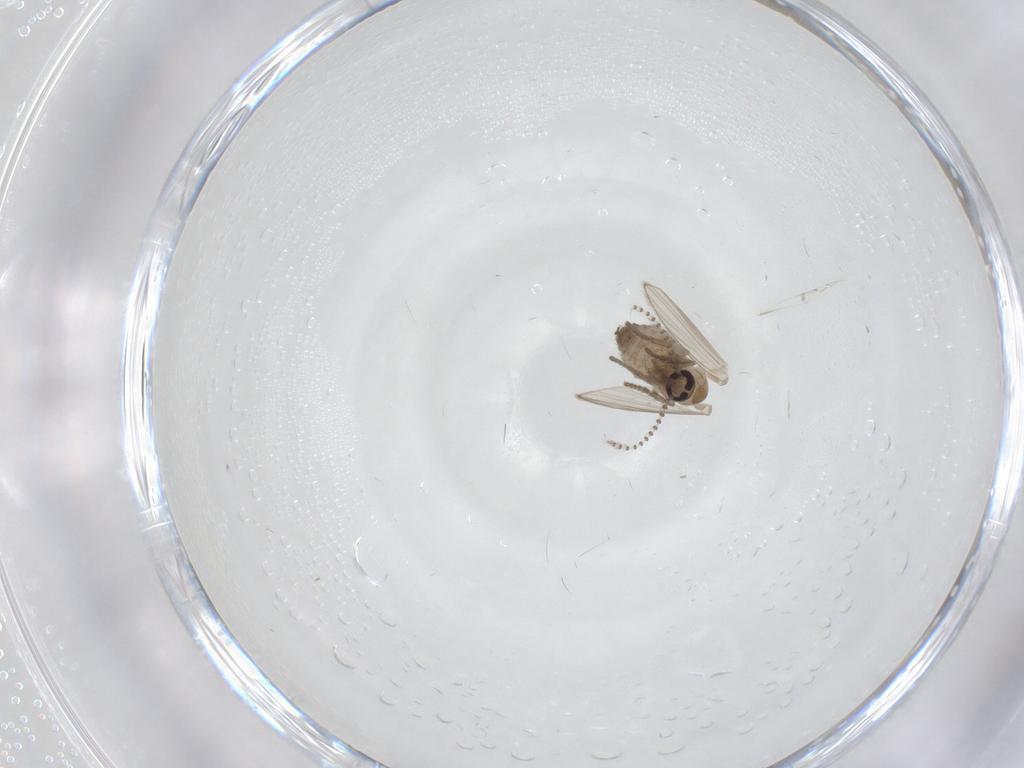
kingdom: Animalia
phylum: Arthropoda
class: Insecta
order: Diptera
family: Psychodidae
